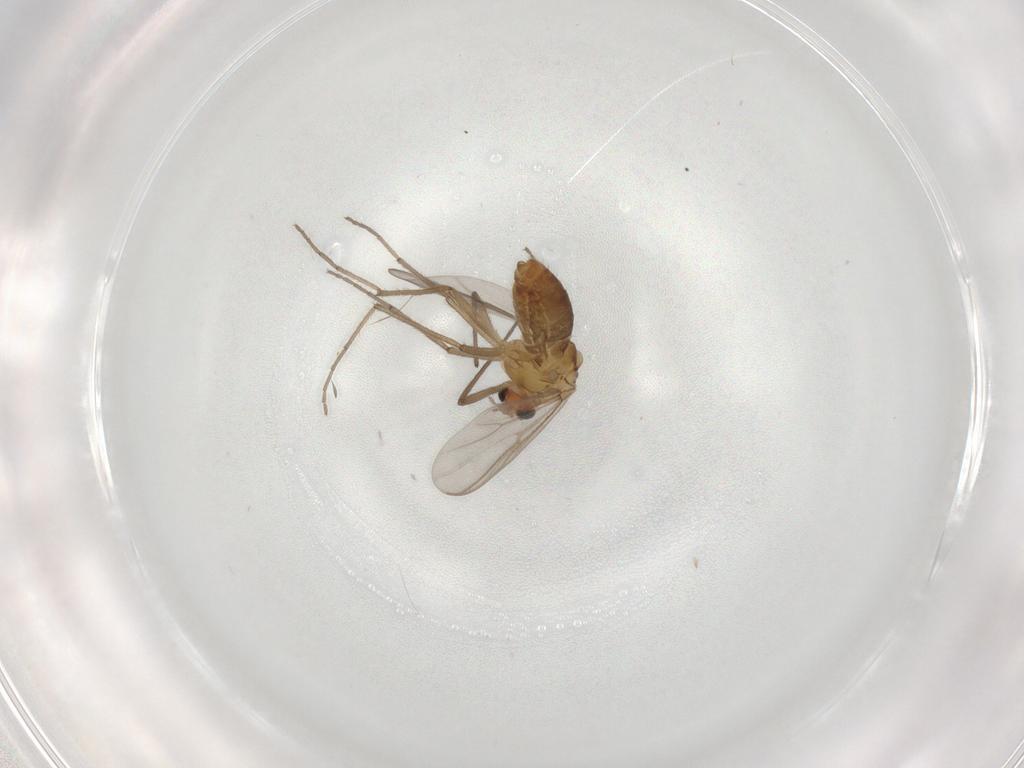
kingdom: Animalia
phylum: Arthropoda
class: Insecta
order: Diptera
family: Chironomidae
